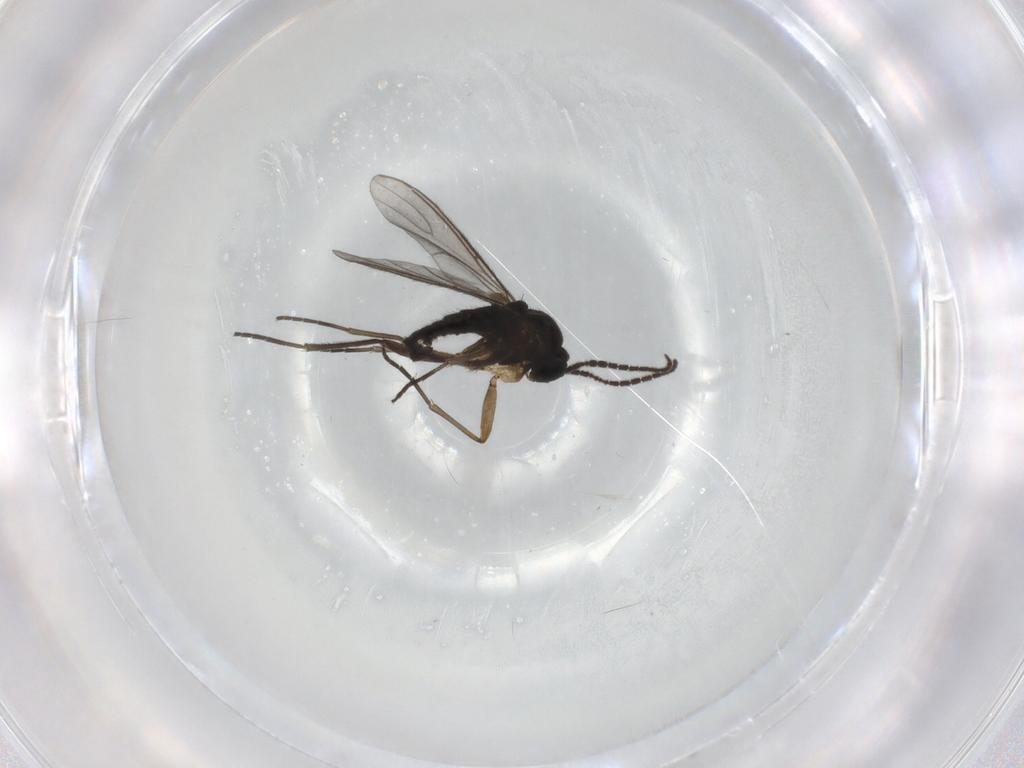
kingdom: Animalia
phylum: Arthropoda
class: Insecta
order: Diptera
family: Sciaridae
